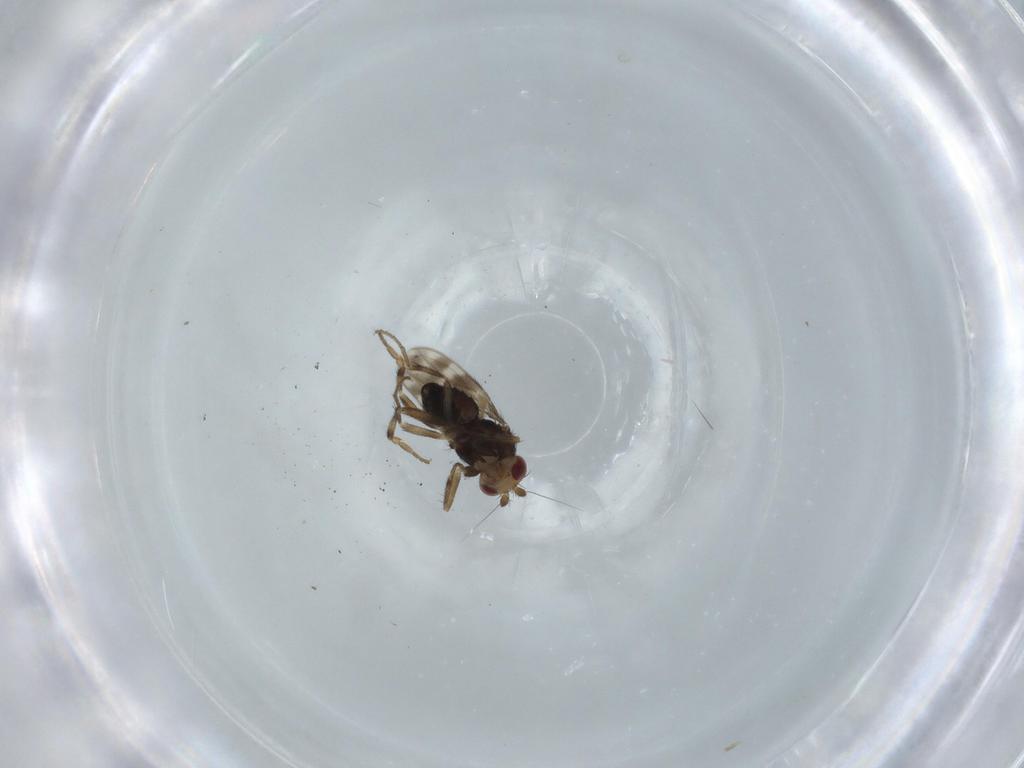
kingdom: Animalia
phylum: Arthropoda
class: Insecta
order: Diptera
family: Sphaeroceridae
